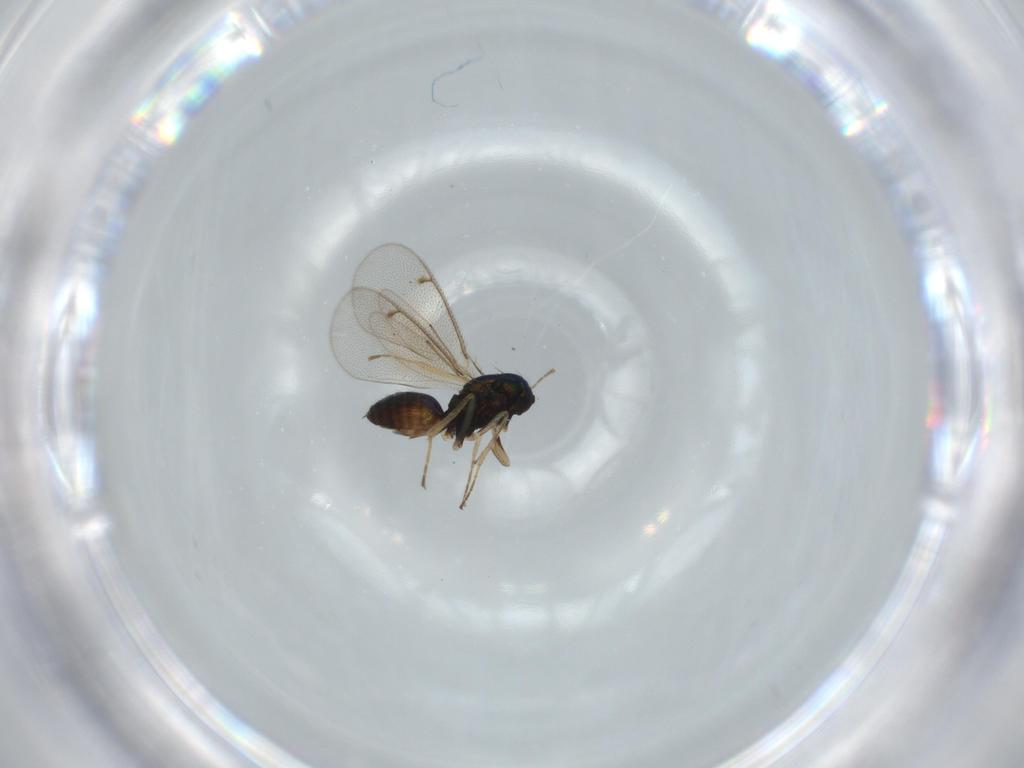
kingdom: Animalia
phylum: Arthropoda
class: Insecta
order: Hymenoptera
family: Eulophidae
